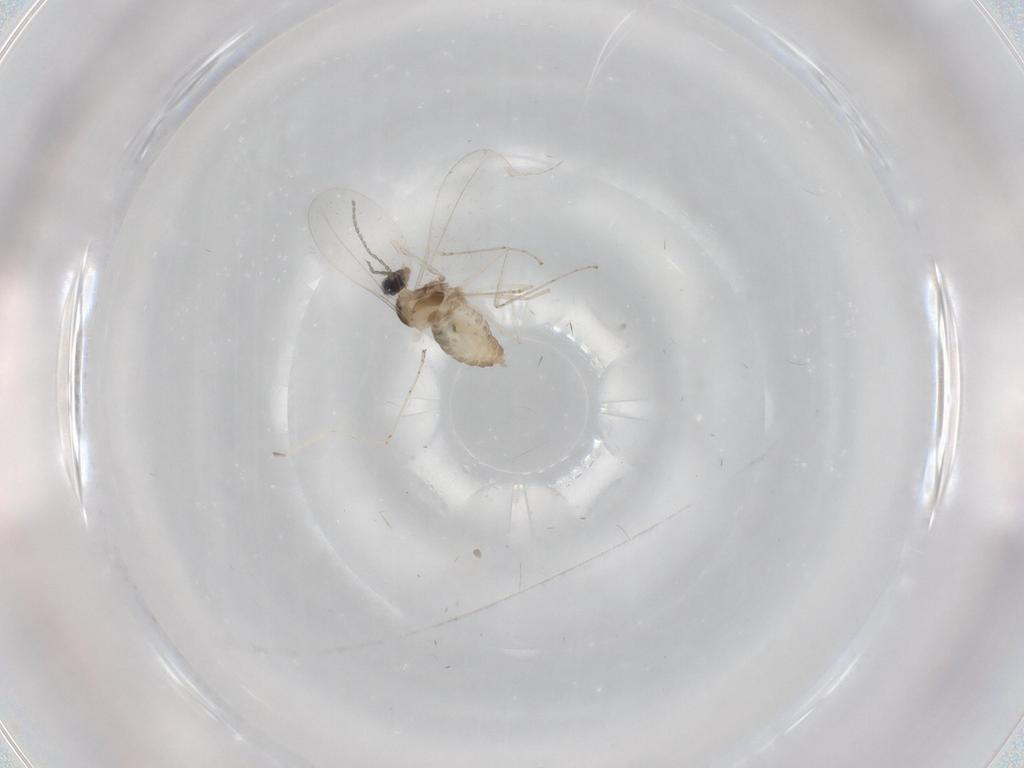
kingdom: Animalia
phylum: Arthropoda
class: Insecta
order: Diptera
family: Cecidomyiidae
